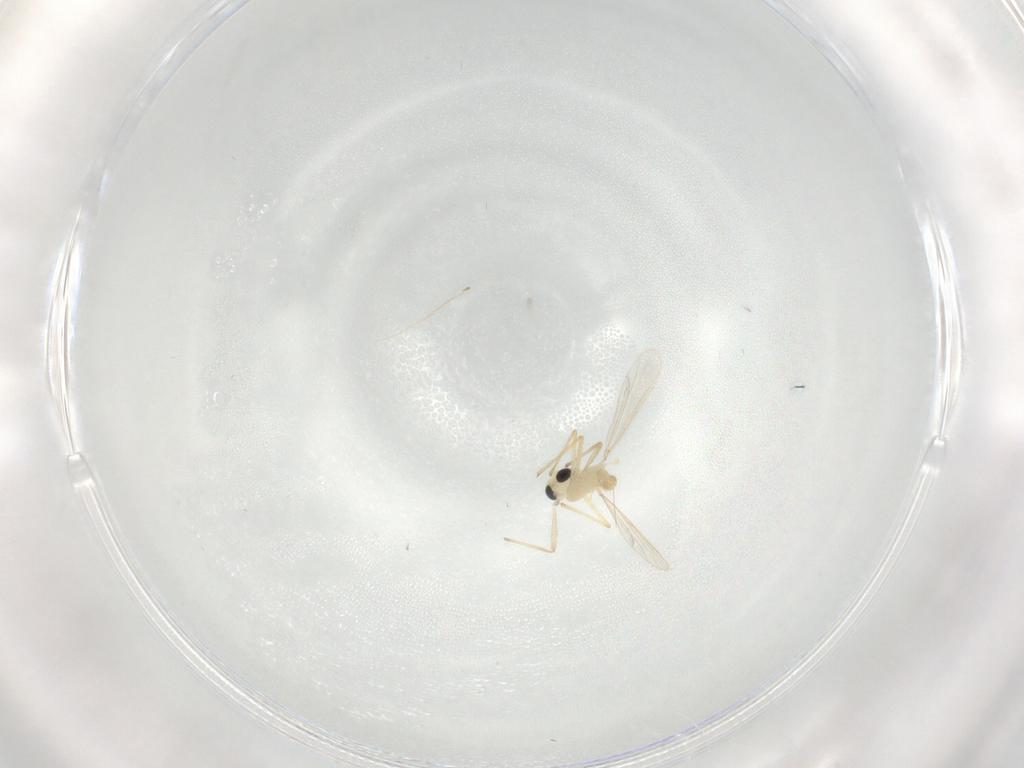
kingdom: Animalia
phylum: Arthropoda
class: Insecta
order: Diptera
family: Chironomidae
